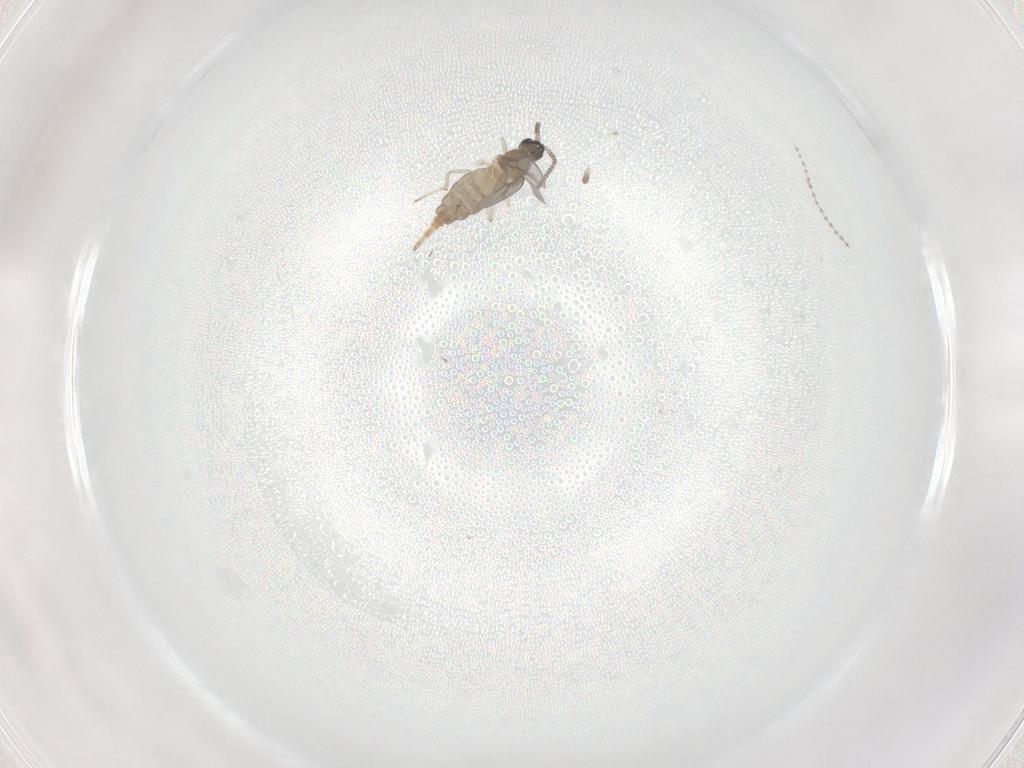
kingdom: Animalia
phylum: Arthropoda
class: Insecta
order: Diptera
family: Cecidomyiidae
